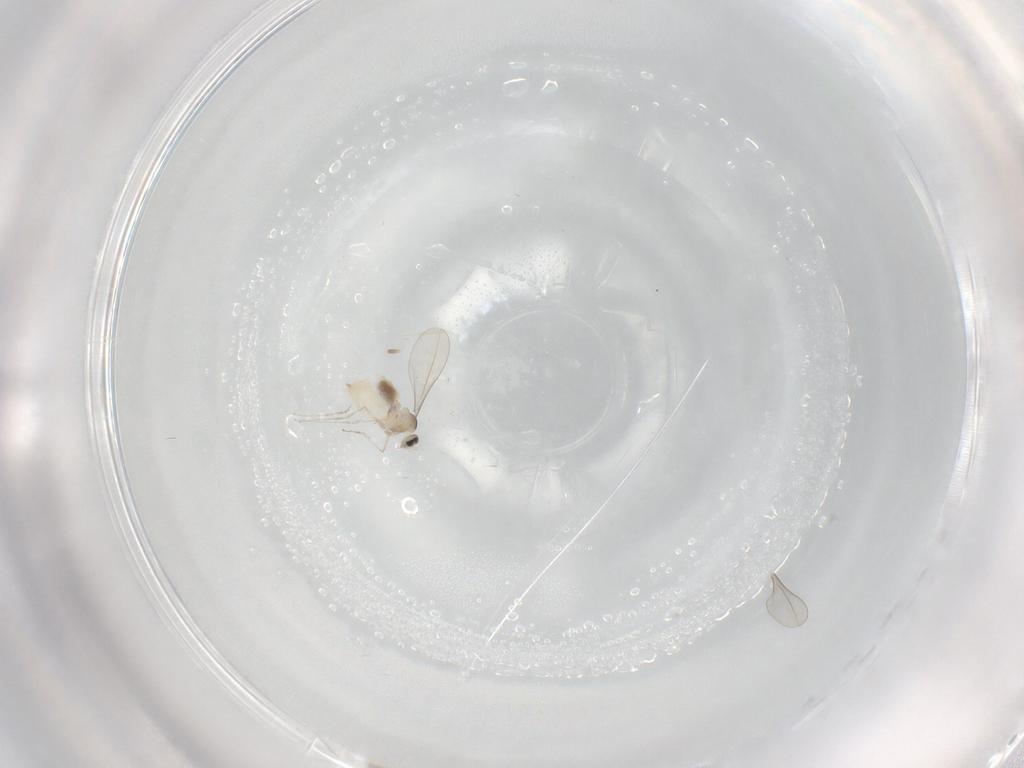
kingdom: Animalia
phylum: Arthropoda
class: Insecta
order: Diptera
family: Cecidomyiidae
